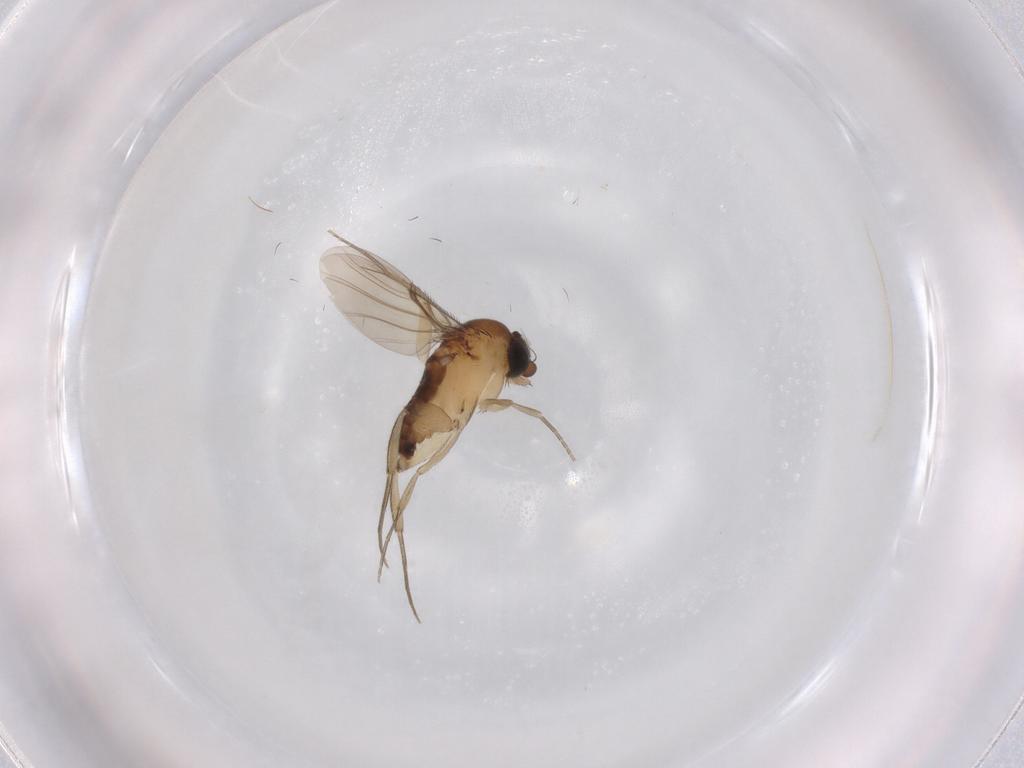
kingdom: Animalia
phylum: Arthropoda
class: Insecta
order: Diptera
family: Phoridae
